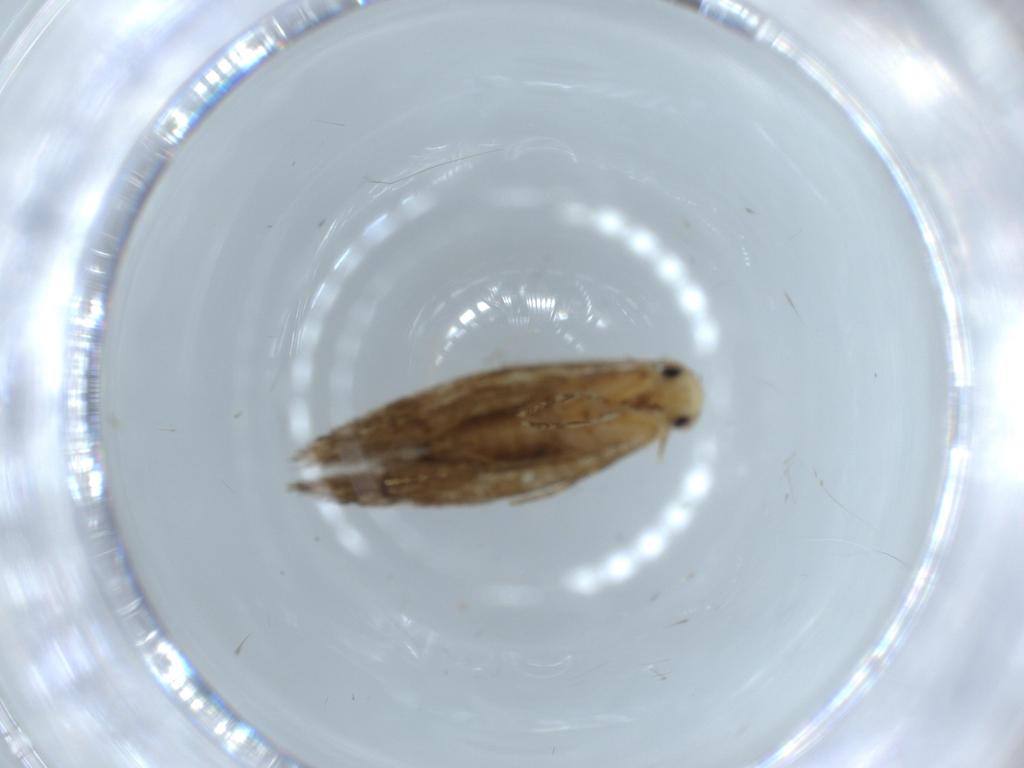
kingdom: Animalia
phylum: Arthropoda
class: Insecta
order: Lepidoptera
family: Tineidae
